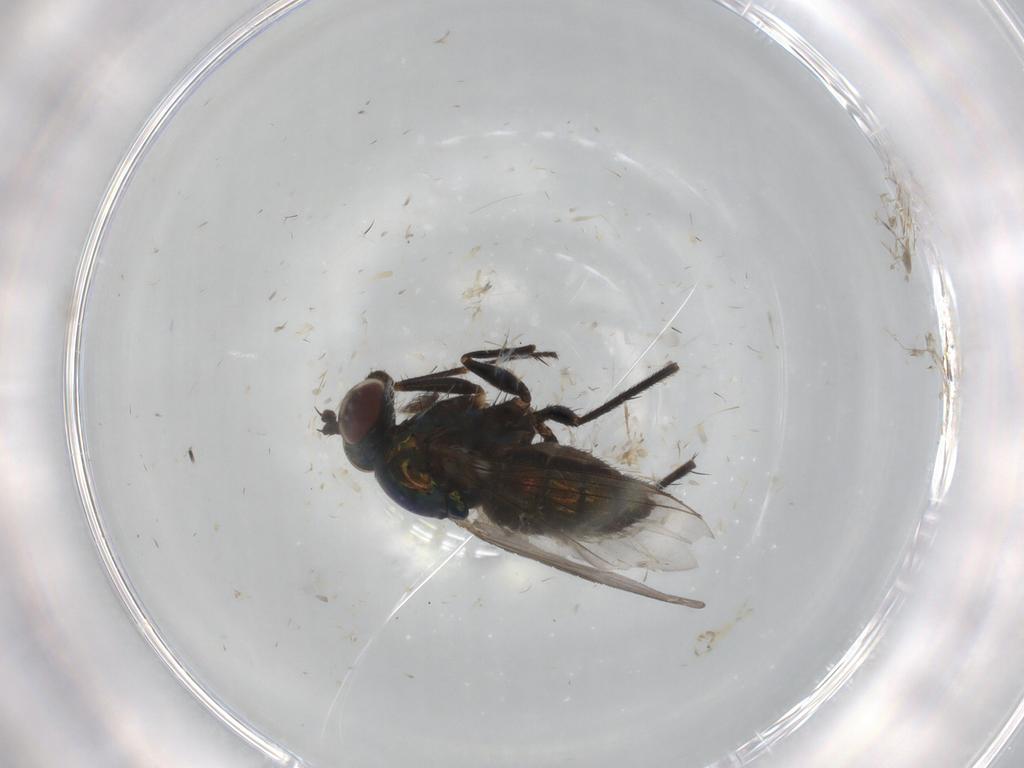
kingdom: Animalia
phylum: Arthropoda
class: Insecta
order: Diptera
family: Dolichopodidae
